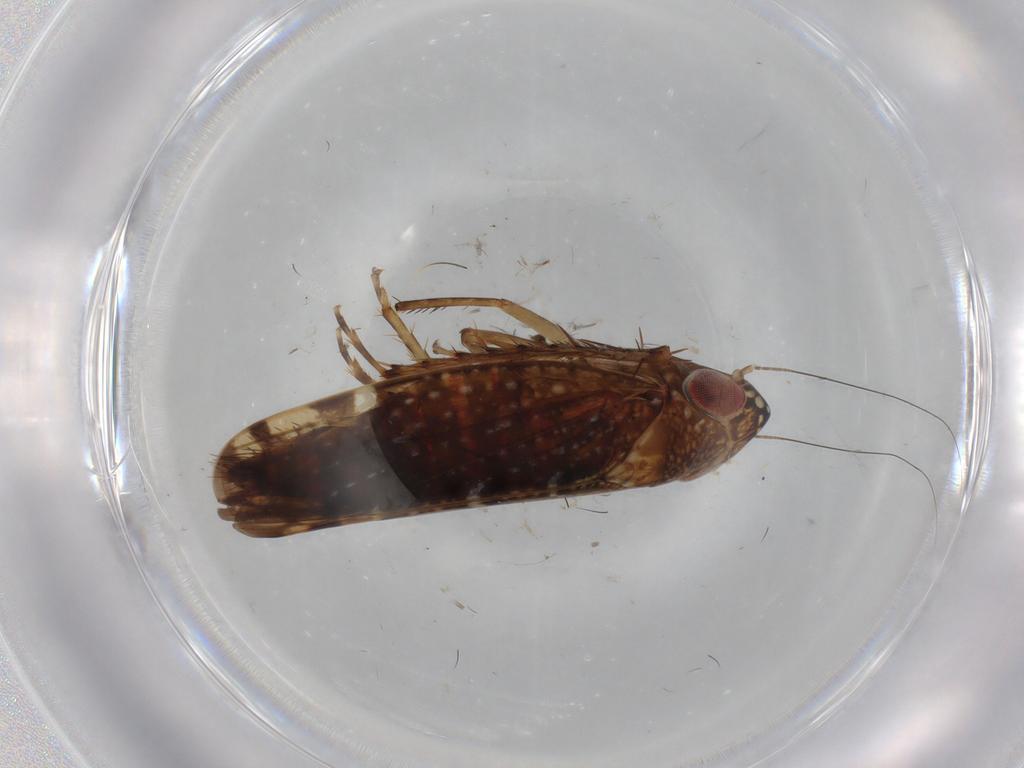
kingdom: Animalia
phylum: Arthropoda
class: Insecta
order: Hemiptera
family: Cicadellidae
